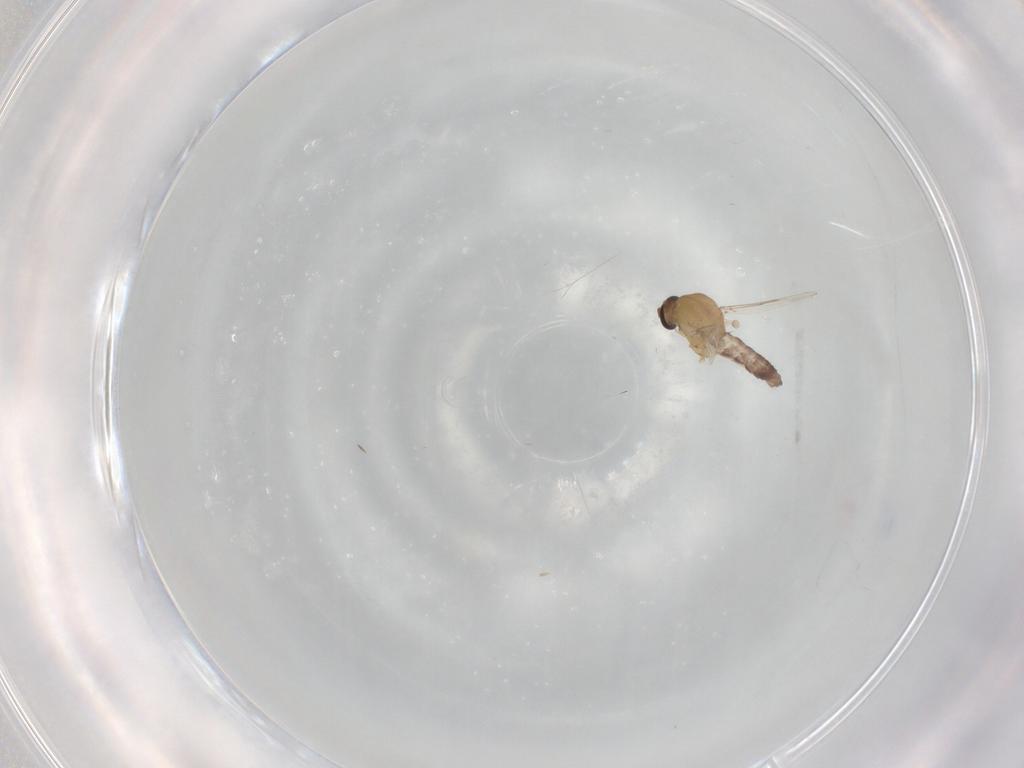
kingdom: Animalia
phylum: Arthropoda
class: Insecta
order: Diptera
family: Ceratopogonidae
